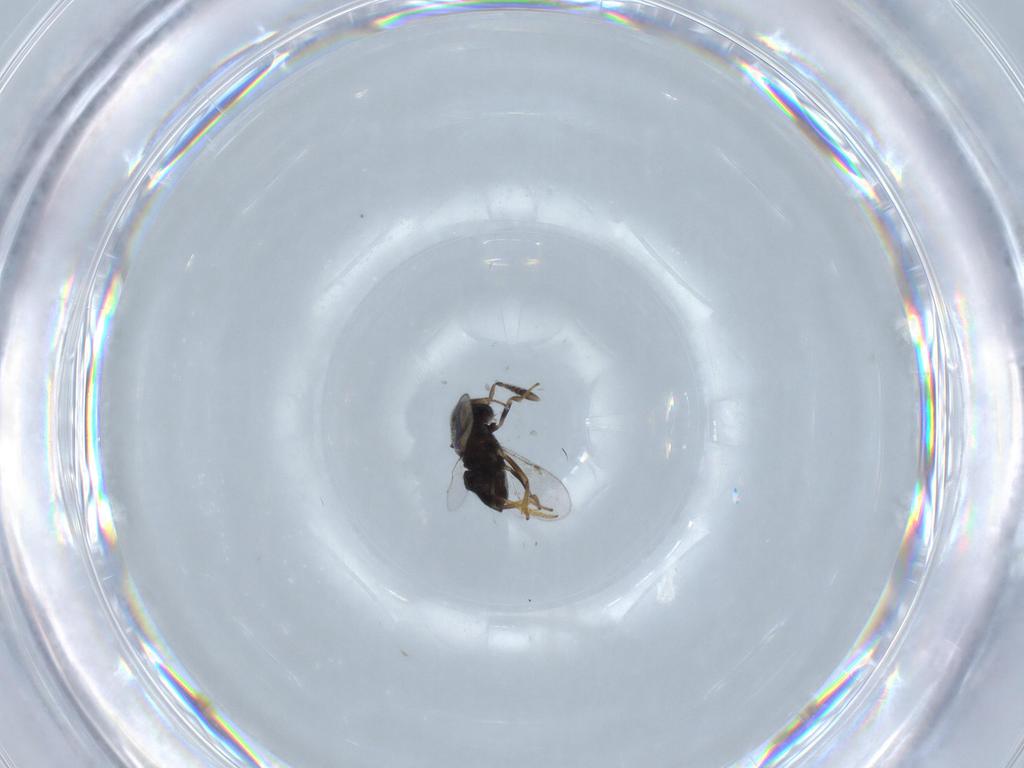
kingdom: Animalia
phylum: Arthropoda
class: Insecta
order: Hymenoptera
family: Encyrtidae
